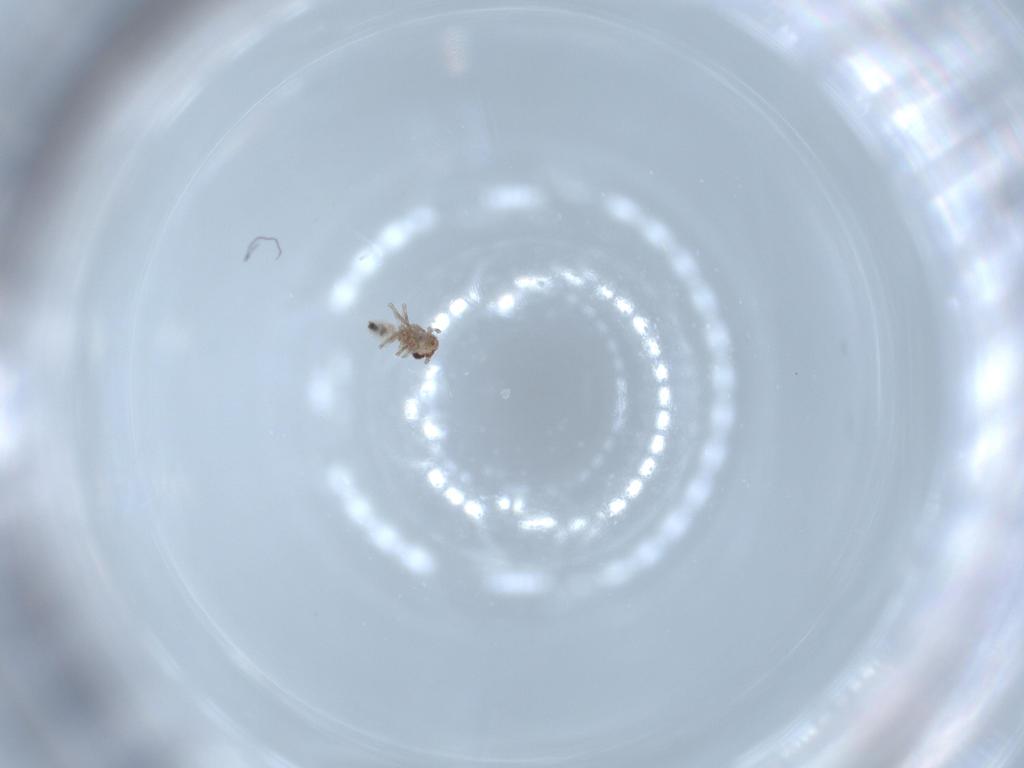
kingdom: Animalia
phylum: Arthropoda
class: Insecta
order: Psocodea
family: Lepidopsocidae
